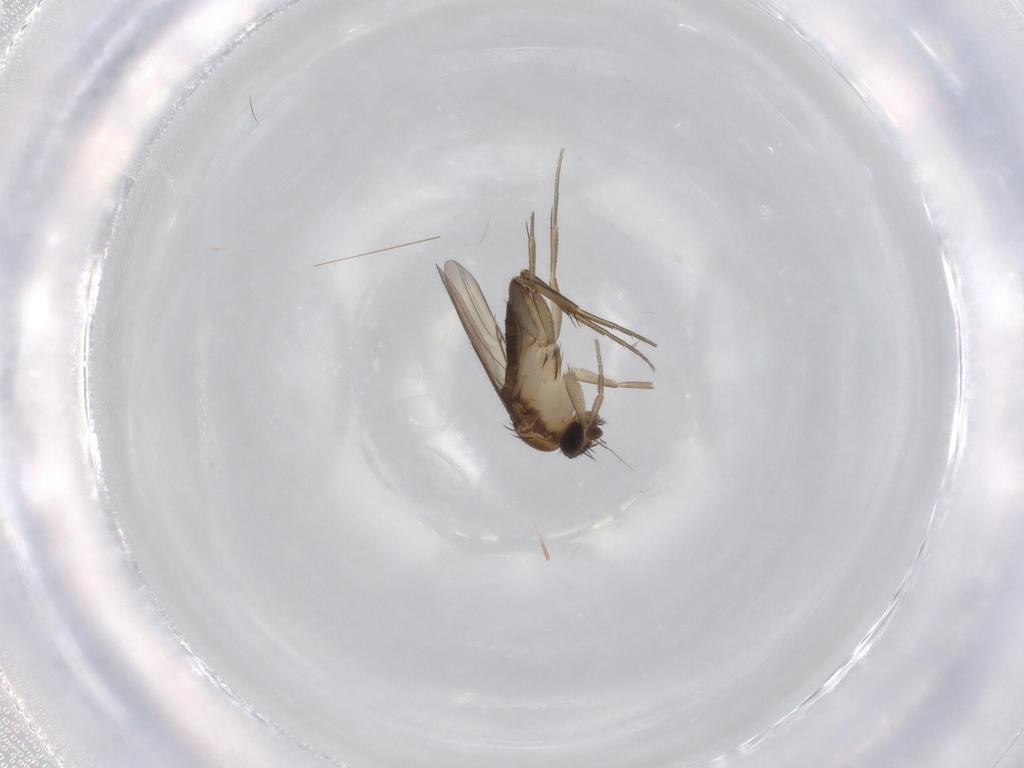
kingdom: Animalia
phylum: Arthropoda
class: Insecta
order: Diptera
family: Phoridae
